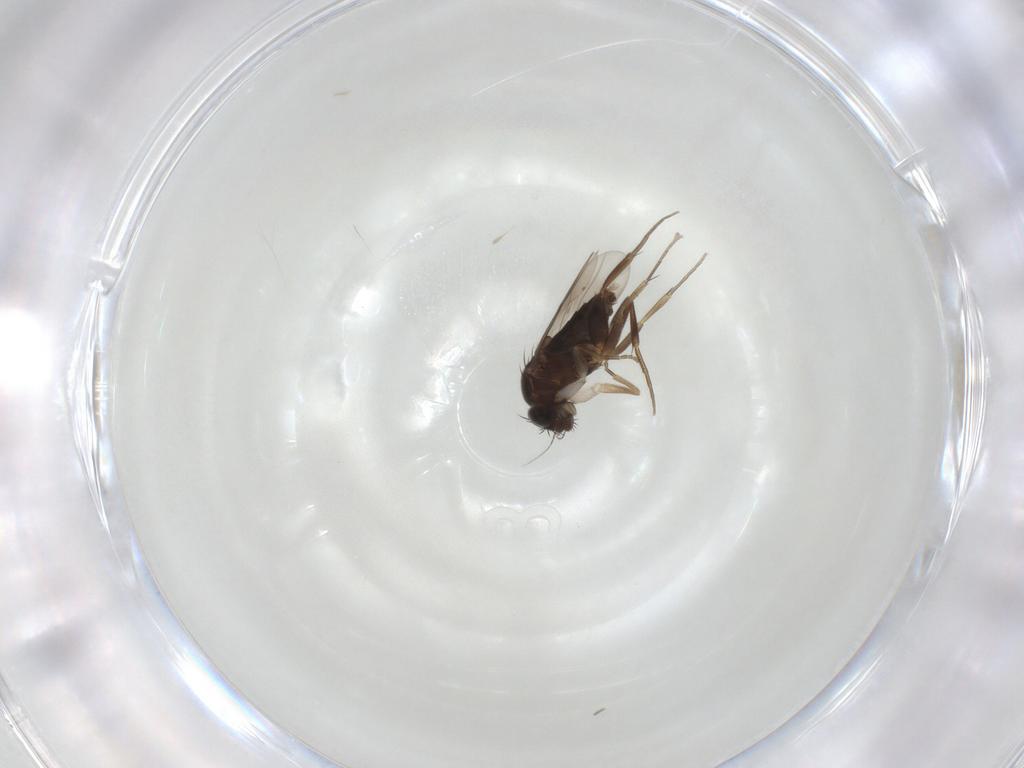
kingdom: Animalia
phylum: Arthropoda
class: Insecta
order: Diptera
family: Phoridae
